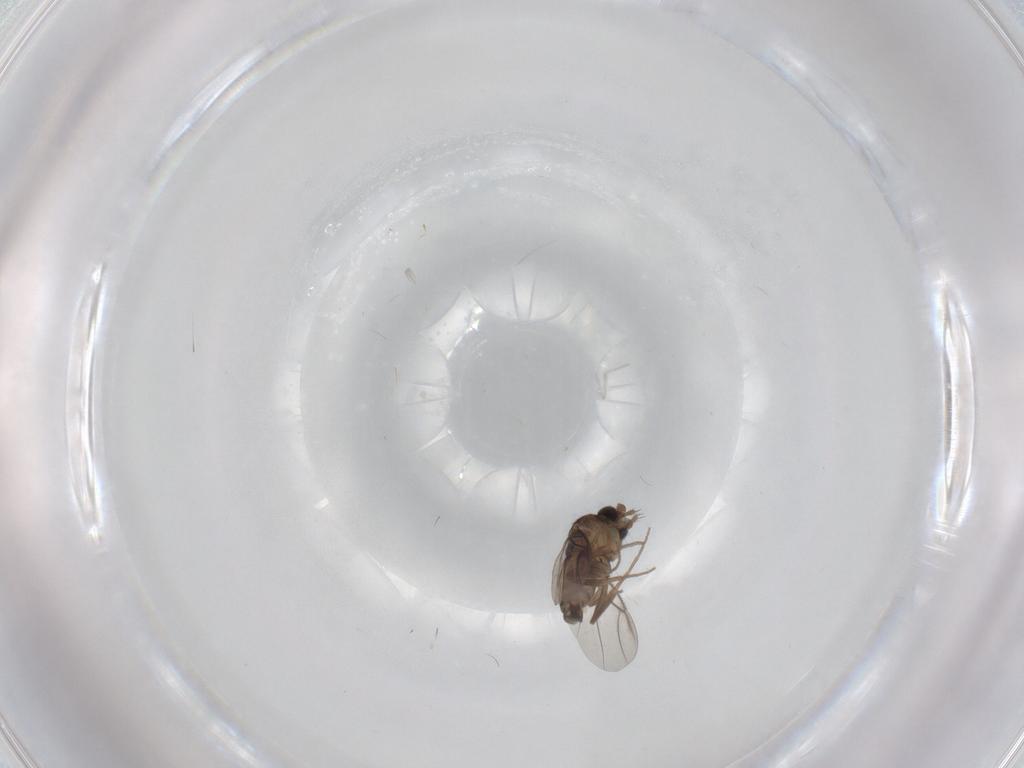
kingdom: Animalia
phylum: Arthropoda
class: Insecta
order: Diptera
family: Phoridae
